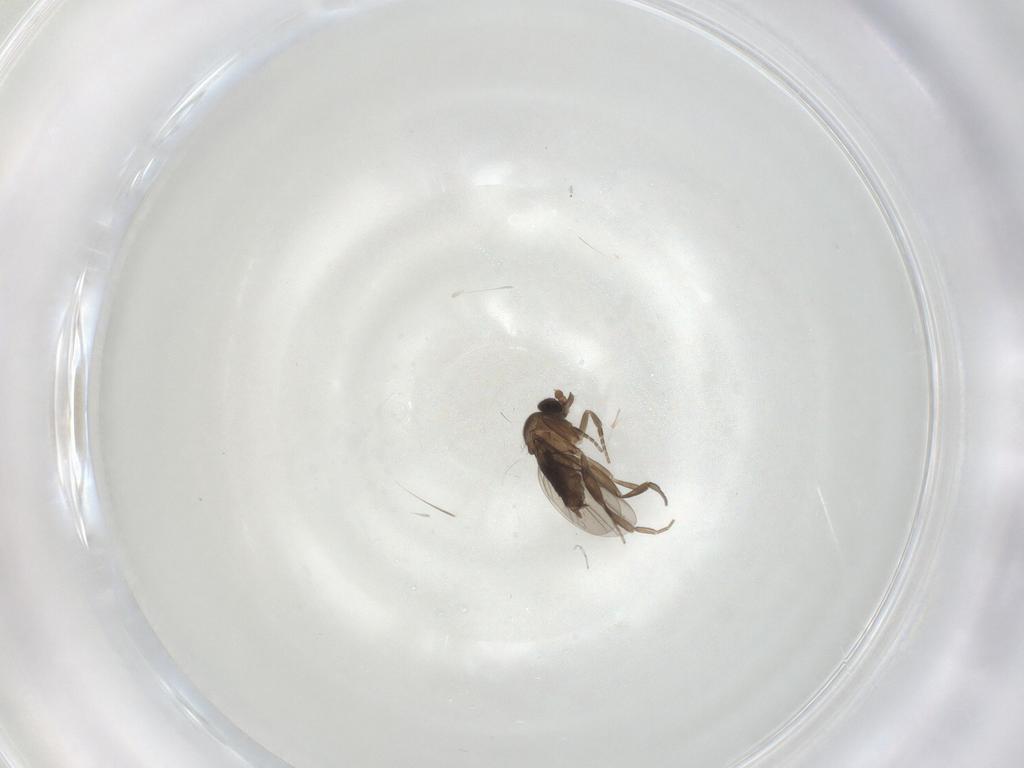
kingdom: Animalia
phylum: Arthropoda
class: Insecta
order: Diptera
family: Phoridae
